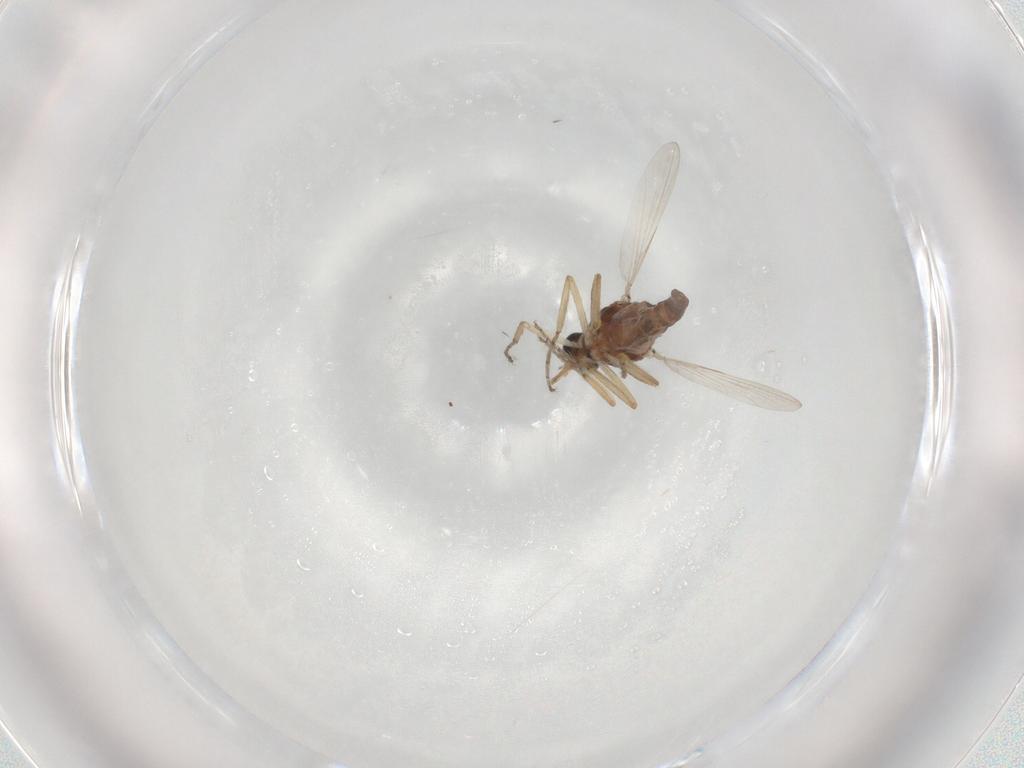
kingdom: Animalia
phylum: Arthropoda
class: Insecta
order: Diptera
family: Ceratopogonidae
